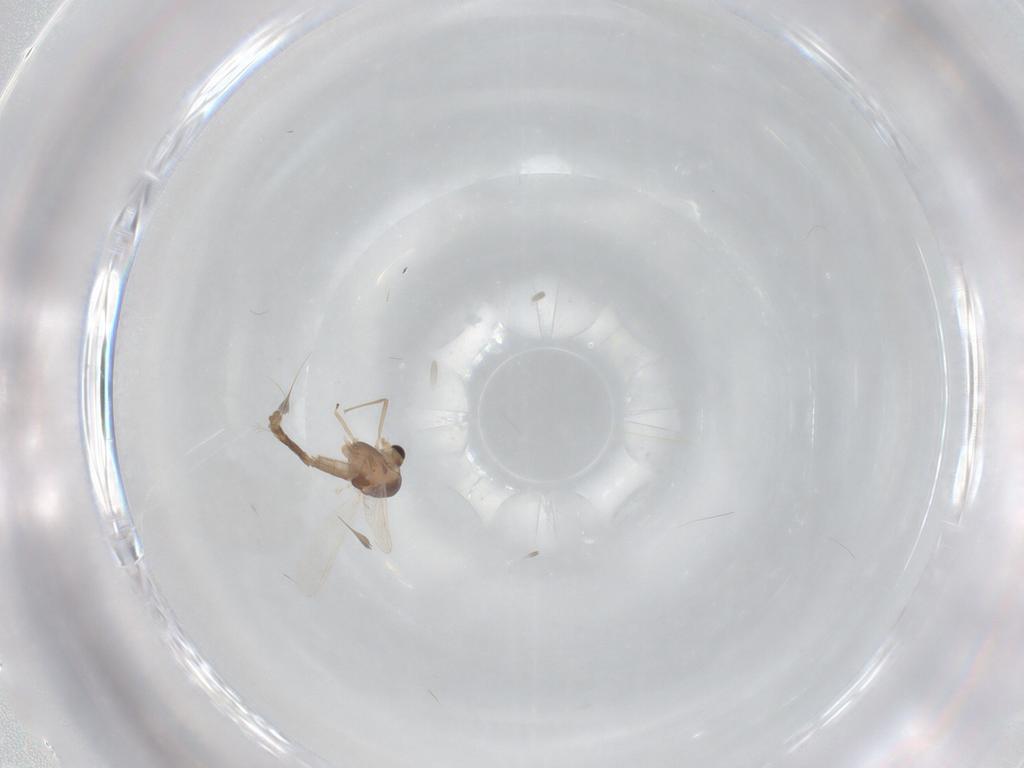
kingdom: Animalia
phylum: Arthropoda
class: Insecta
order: Diptera
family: Chironomidae
